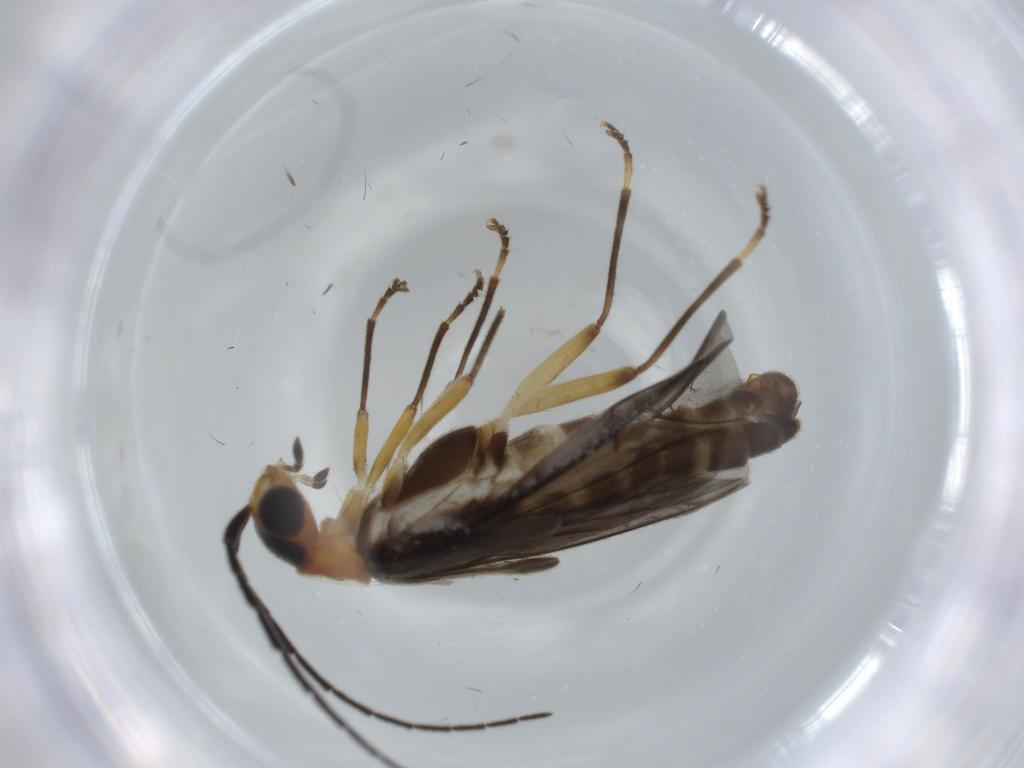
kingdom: Animalia
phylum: Arthropoda
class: Insecta
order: Coleoptera
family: Cantharidae
